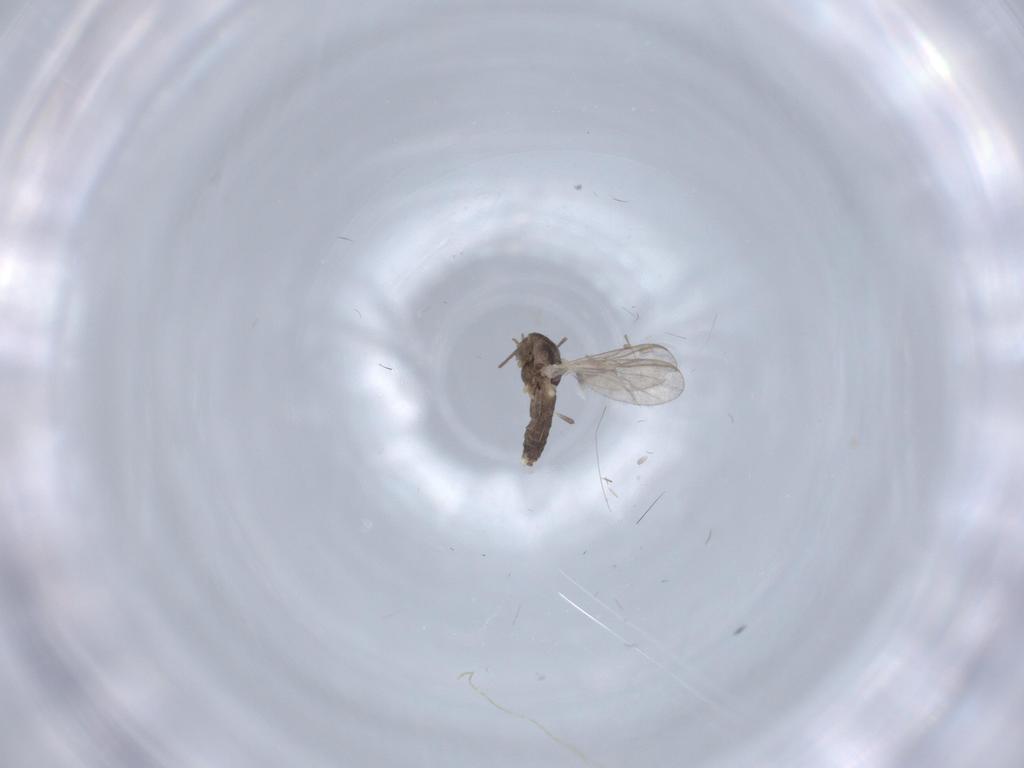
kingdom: Animalia
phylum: Arthropoda
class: Insecta
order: Diptera
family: Chironomidae
